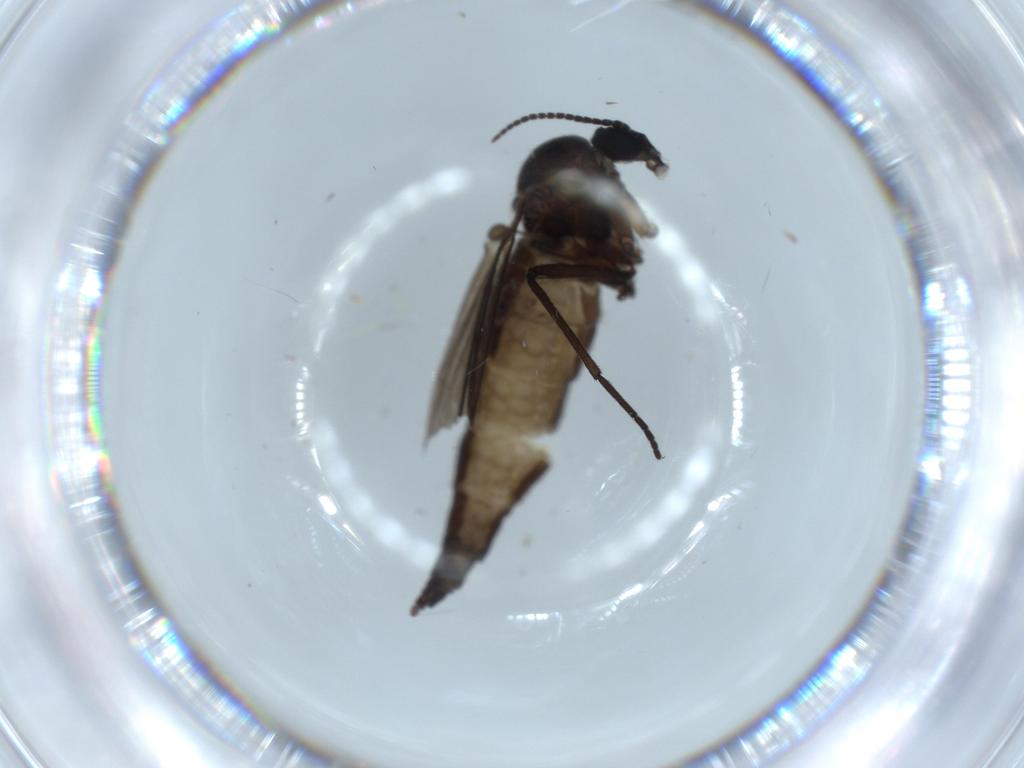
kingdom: Animalia
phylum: Arthropoda
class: Insecta
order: Diptera
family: Sciaridae
